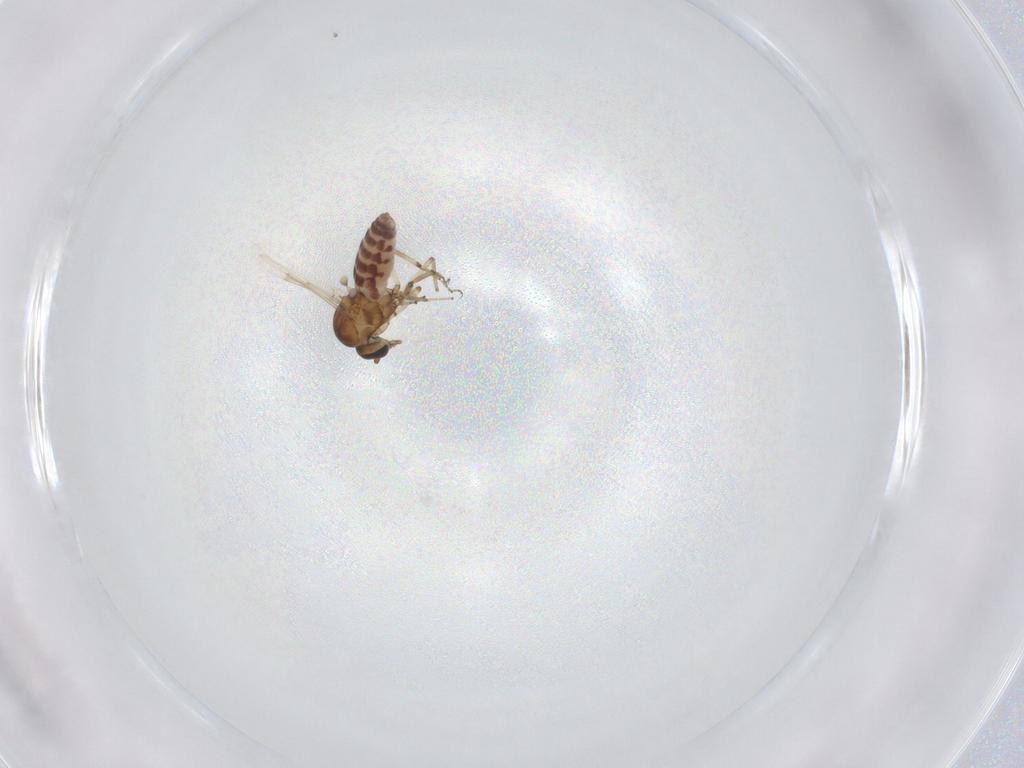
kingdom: Animalia
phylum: Arthropoda
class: Insecta
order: Diptera
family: Ceratopogonidae
